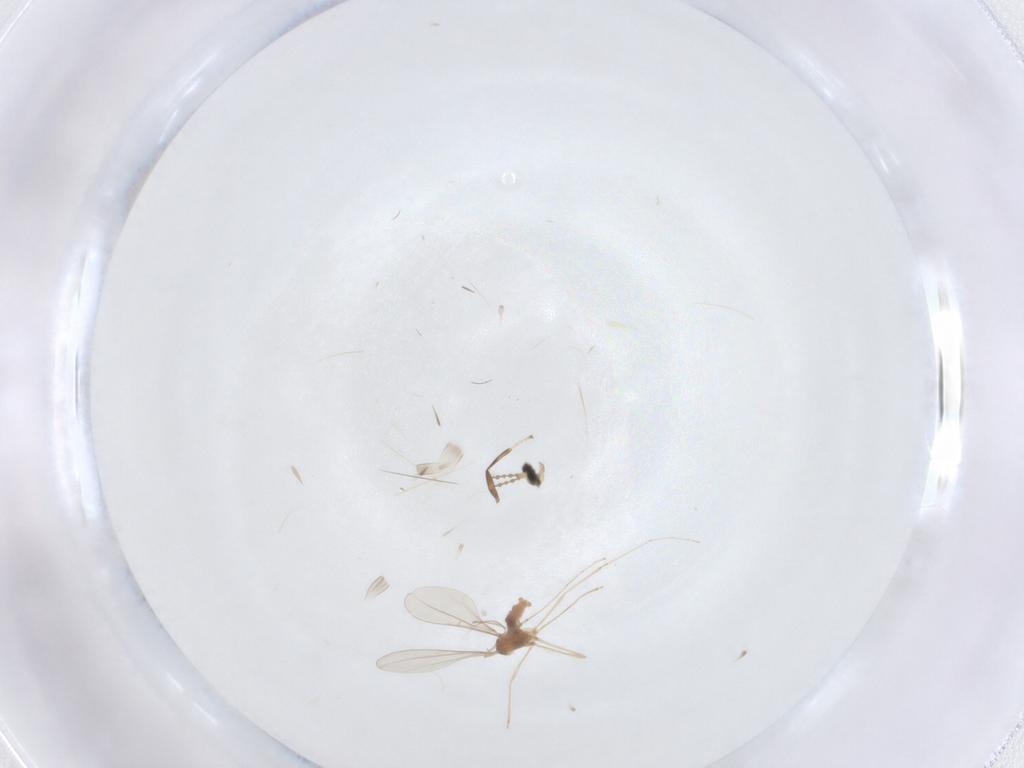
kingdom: Animalia
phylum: Arthropoda
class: Insecta
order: Diptera
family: Cecidomyiidae
